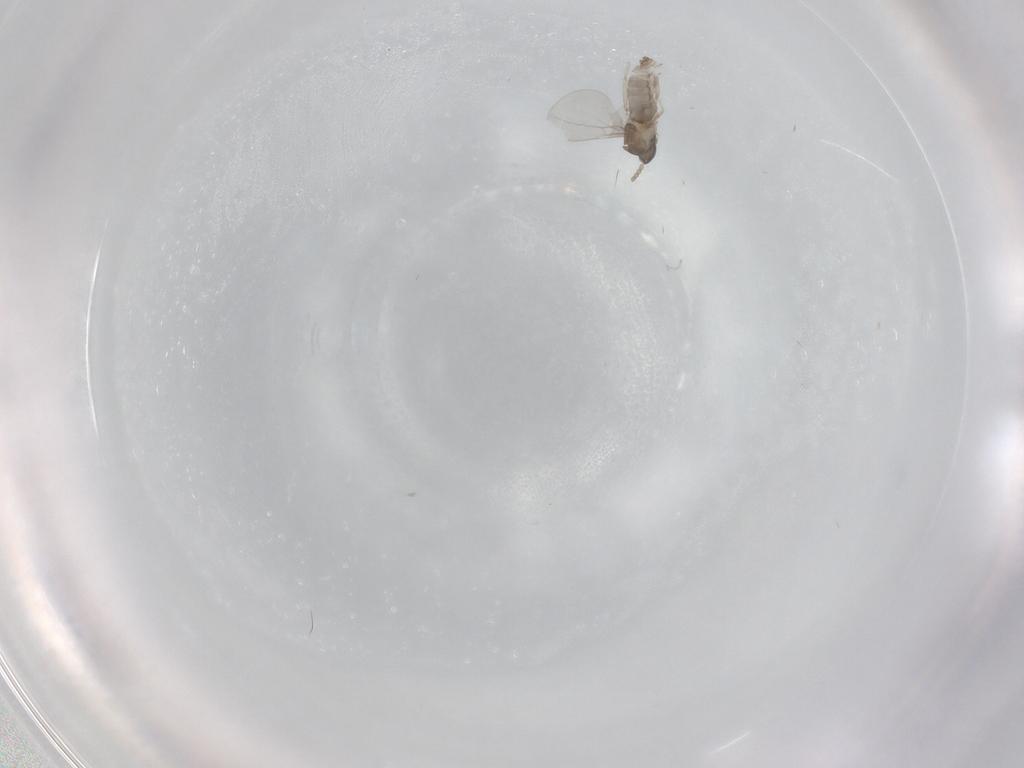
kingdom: Animalia
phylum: Arthropoda
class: Insecta
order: Diptera
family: Cecidomyiidae
